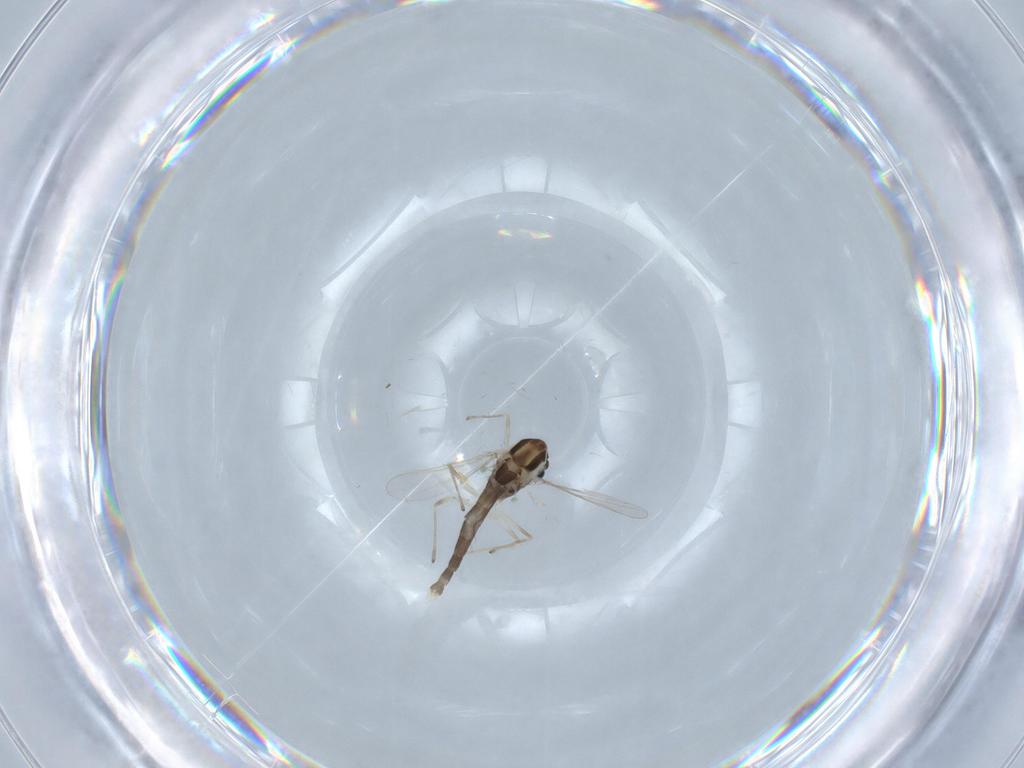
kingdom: Animalia
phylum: Arthropoda
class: Insecta
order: Diptera
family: Chironomidae
